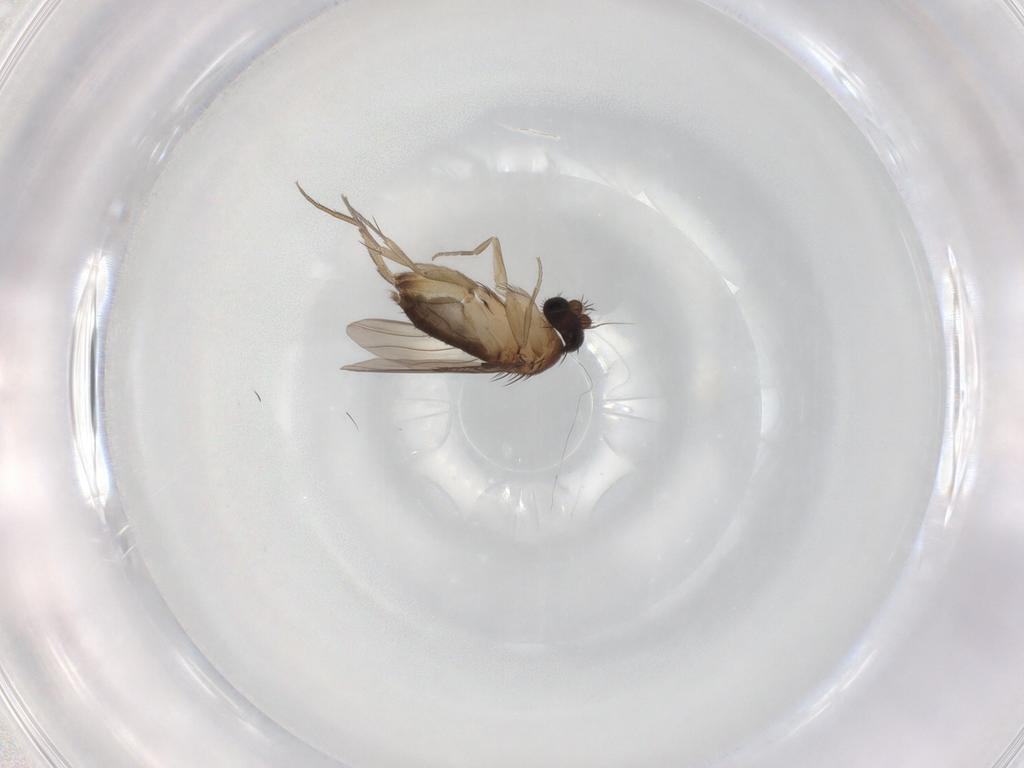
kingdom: Animalia
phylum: Arthropoda
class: Insecta
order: Diptera
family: Phoridae
